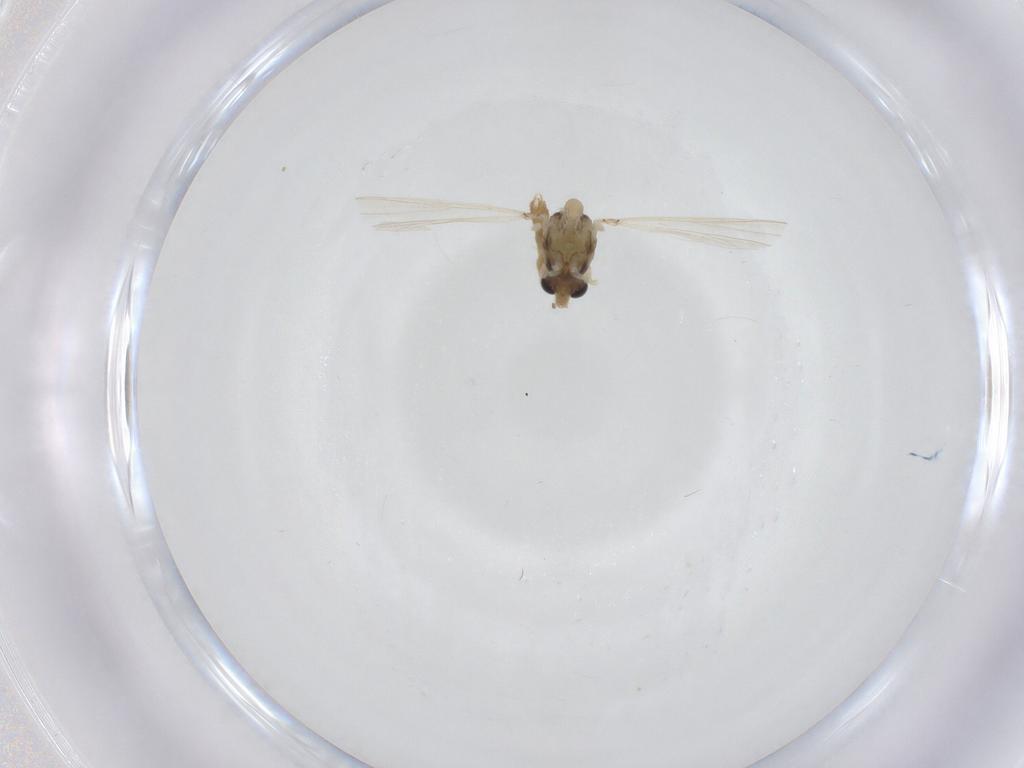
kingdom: Animalia
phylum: Arthropoda
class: Insecta
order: Diptera
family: Chironomidae
